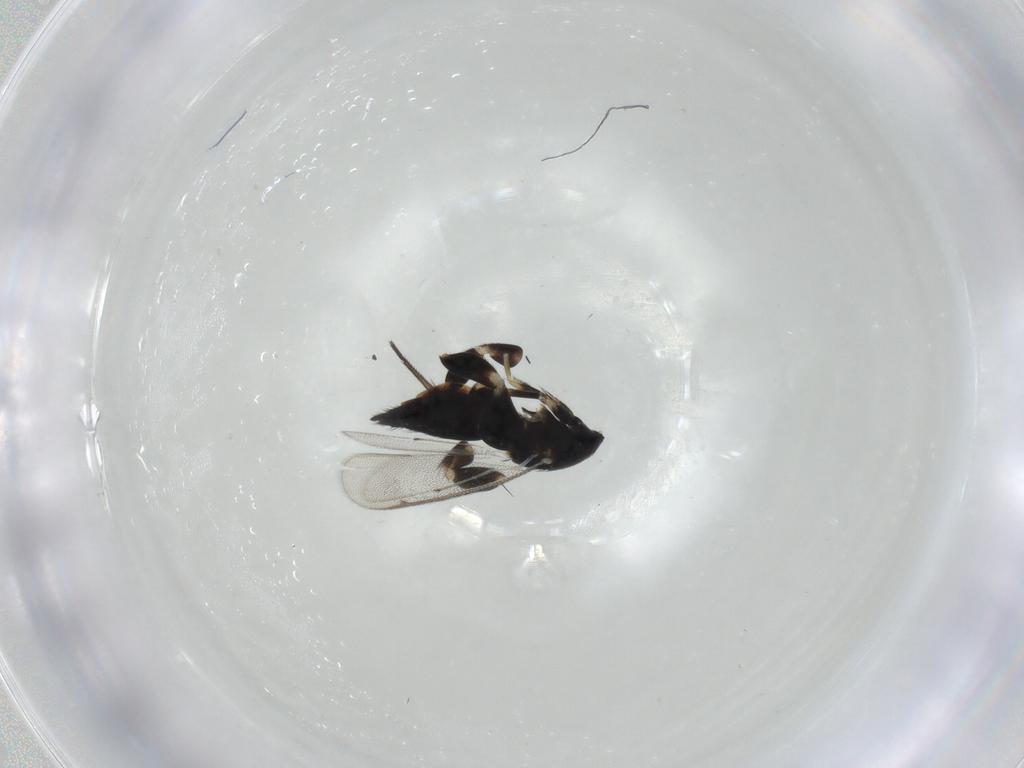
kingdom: Animalia
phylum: Arthropoda
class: Insecta
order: Hymenoptera
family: Eulophidae
